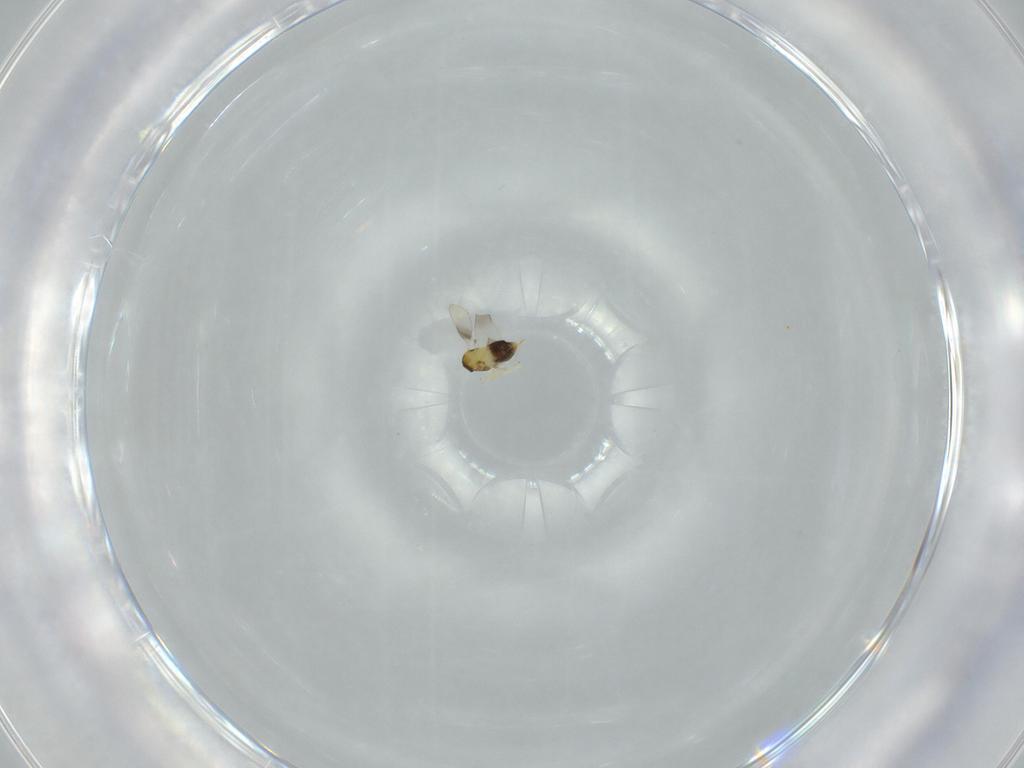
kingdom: Animalia
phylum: Arthropoda
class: Insecta
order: Hymenoptera
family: Aphelinidae
